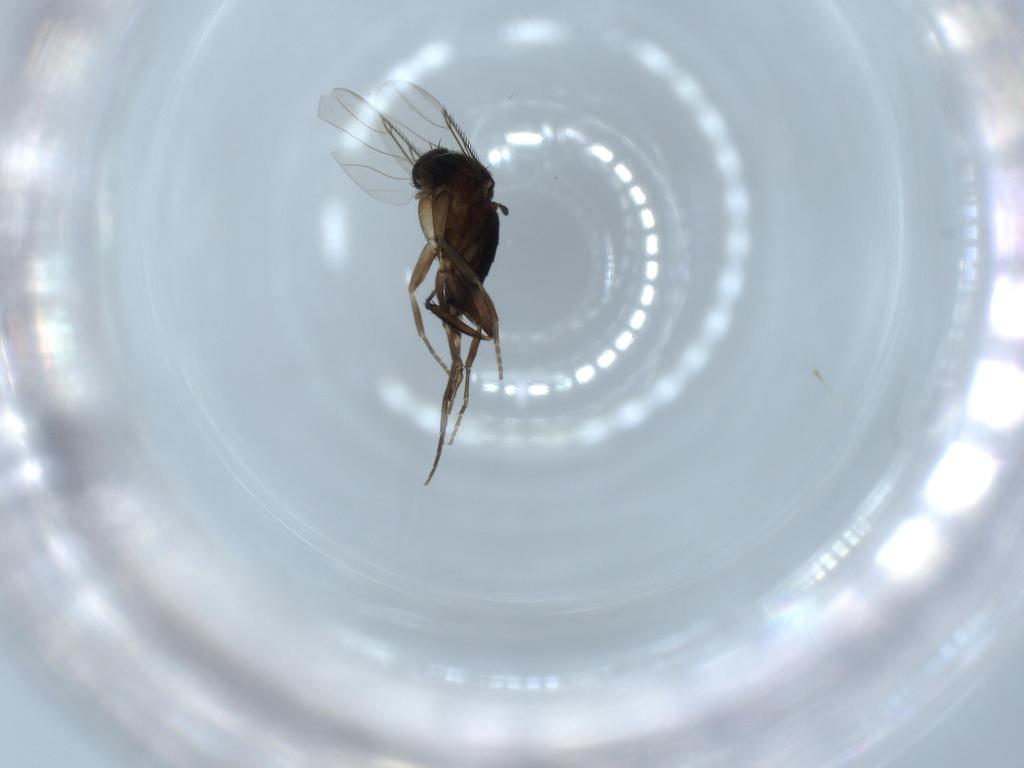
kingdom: Animalia
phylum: Arthropoda
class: Insecta
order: Diptera
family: Phoridae
